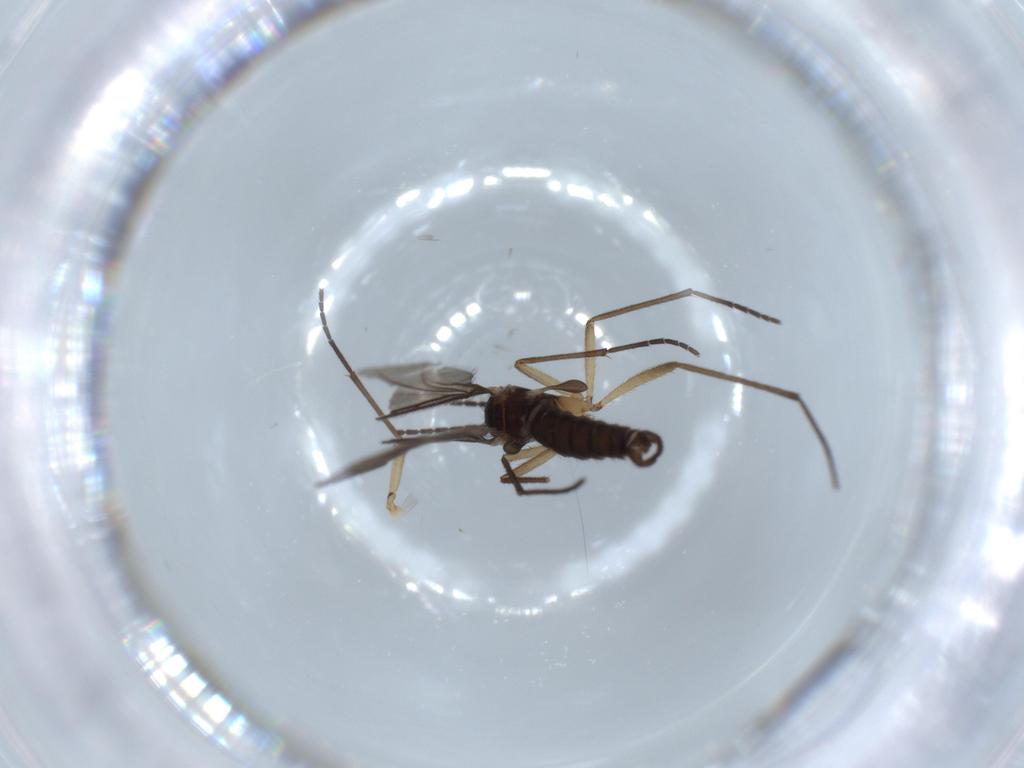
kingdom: Animalia
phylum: Arthropoda
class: Insecta
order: Diptera
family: Sciaridae
